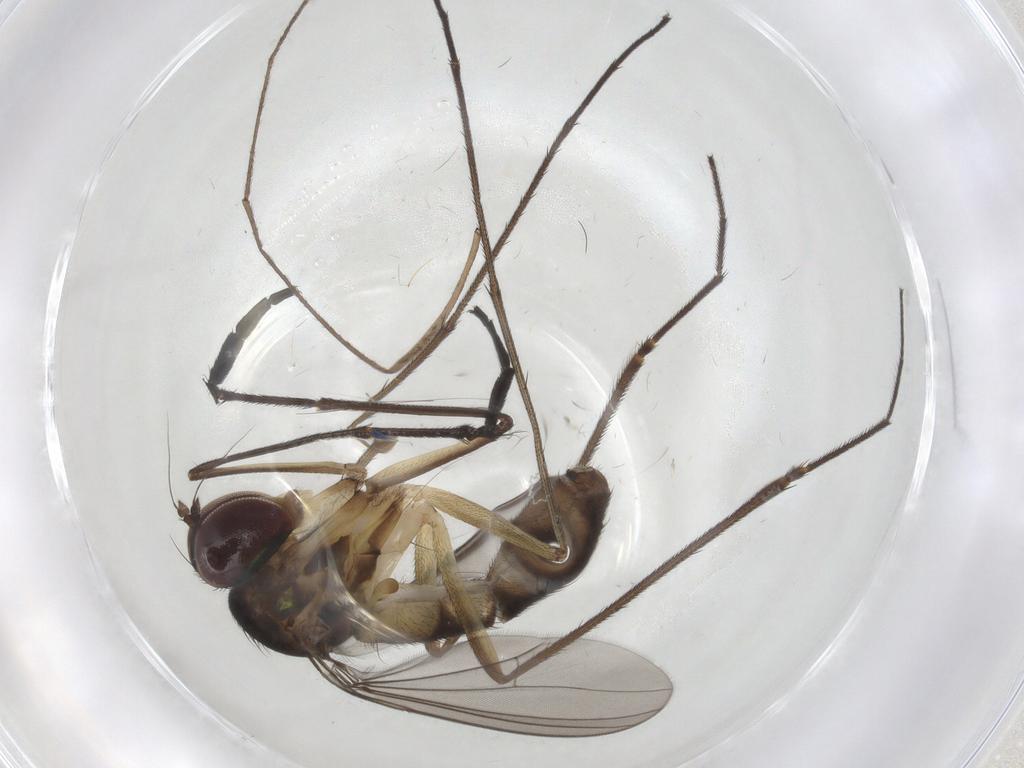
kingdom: Animalia
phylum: Arthropoda
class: Insecta
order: Diptera
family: Dolichopodidae
